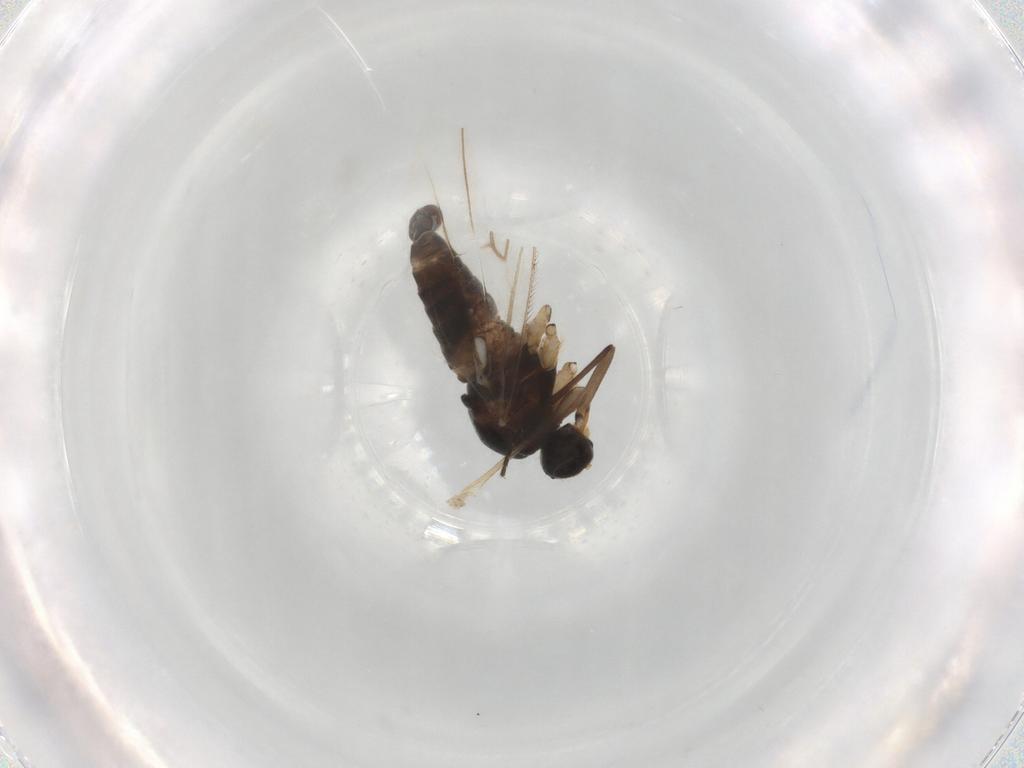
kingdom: Animalia
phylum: Arthropoda
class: Insecta
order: Diptera
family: Hybotidae
